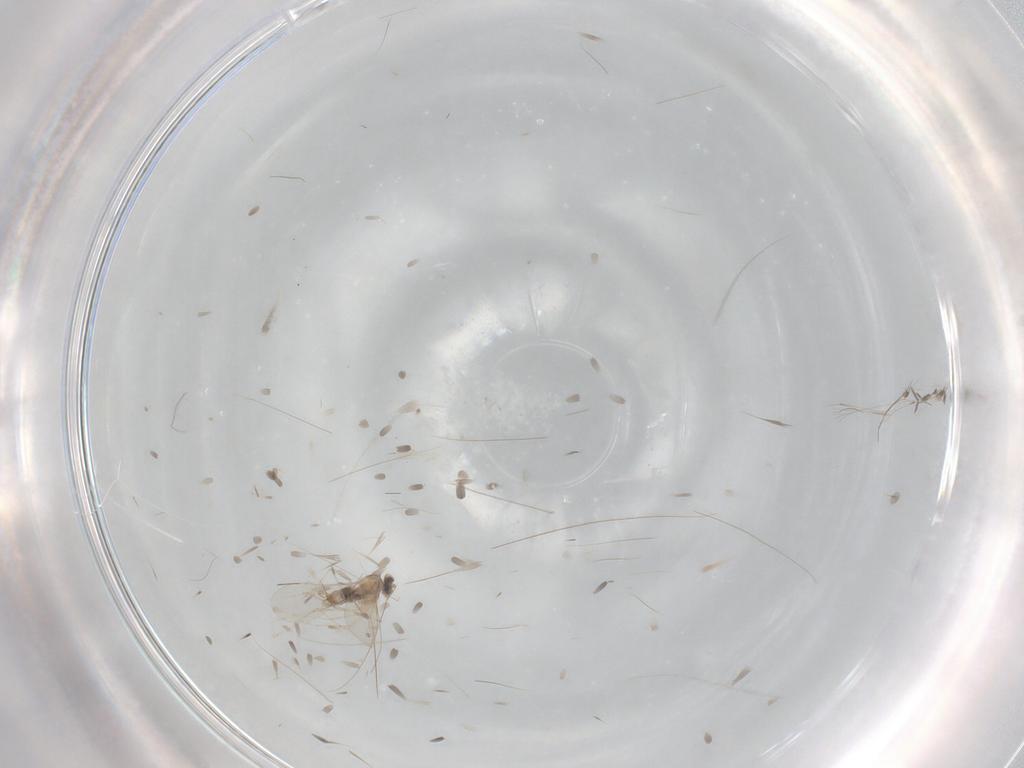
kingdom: Animalia
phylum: Arthropoda
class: Insecta
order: Diptera
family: Cecidomyiidae
